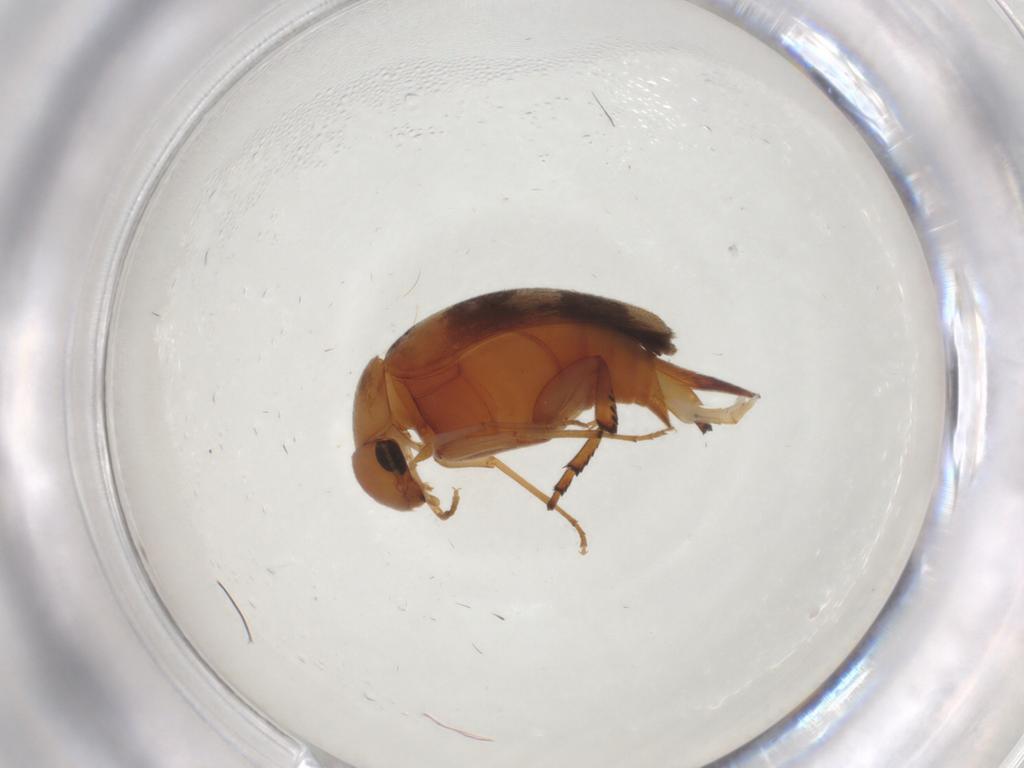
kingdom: Animalia
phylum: Arthropoda
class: Insecta
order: Coleoptera
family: Mordellidae
